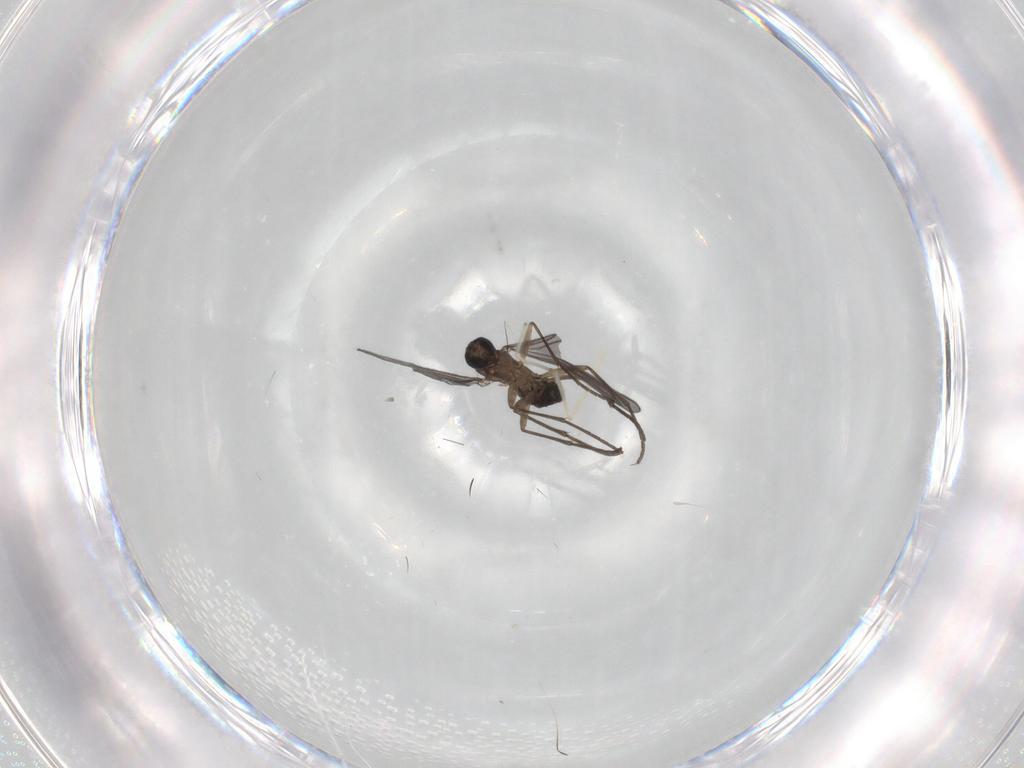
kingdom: Animalia
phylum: Arthropoda
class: Insecta
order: Diptera
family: Sciaridae
